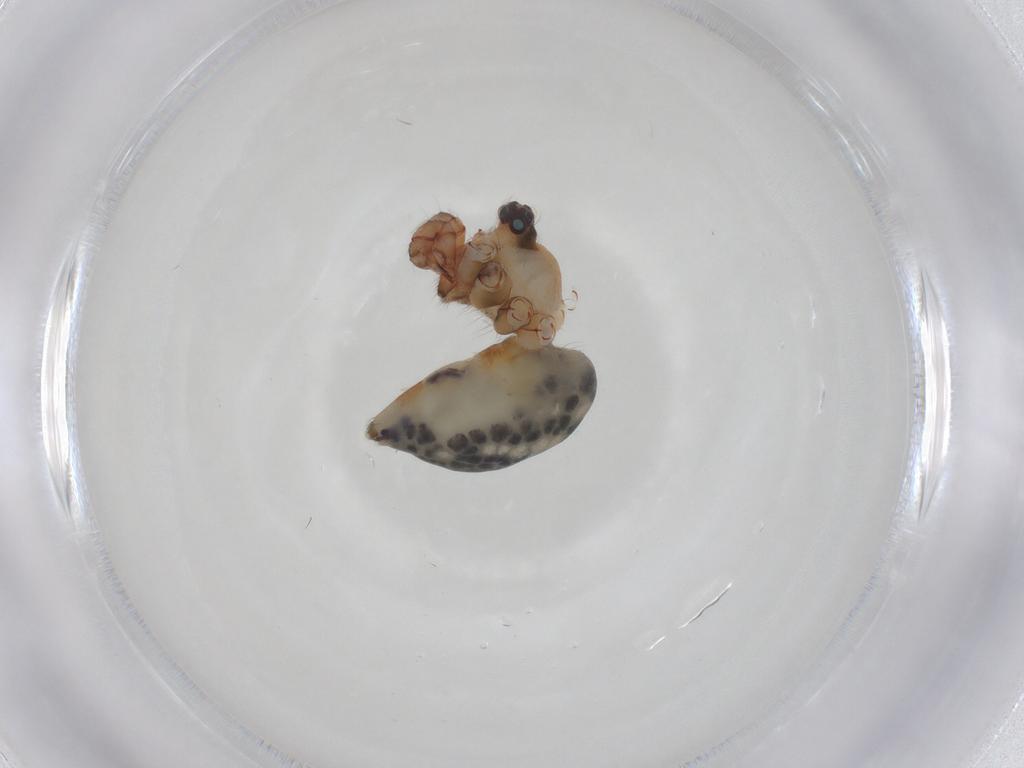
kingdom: Animalia
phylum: Arthropoda
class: Arachnida
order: Araneae
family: Pholcidae
